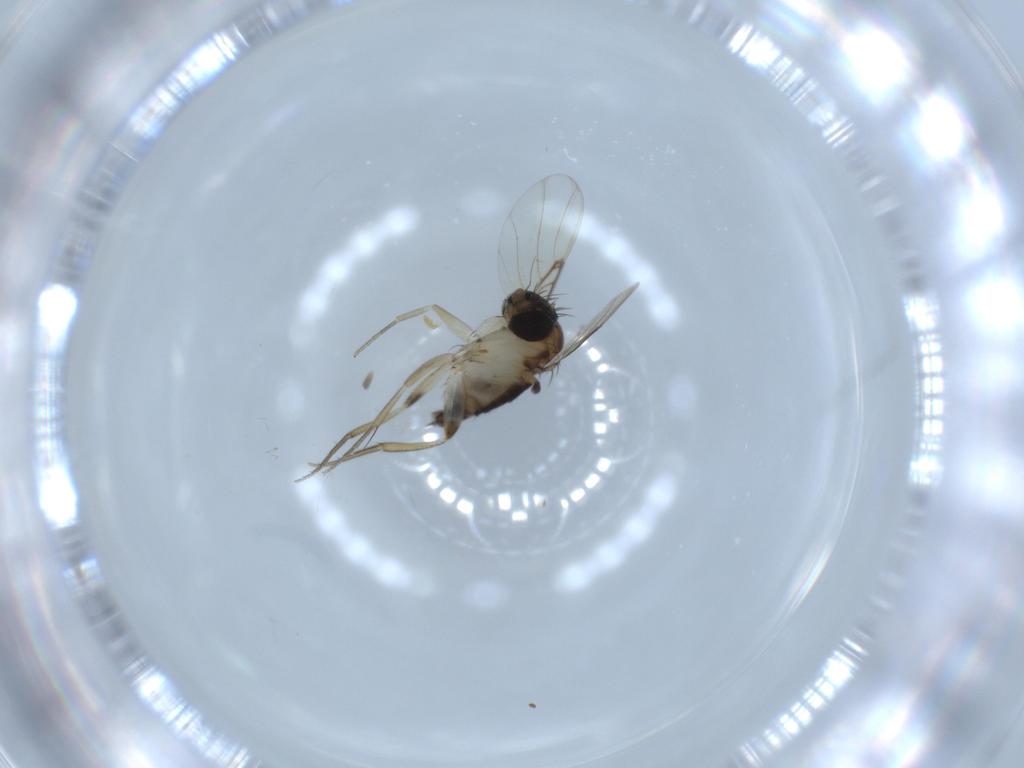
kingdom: Animalia
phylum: Arthropoda
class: Insecta
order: Diptera
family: Phoridae
